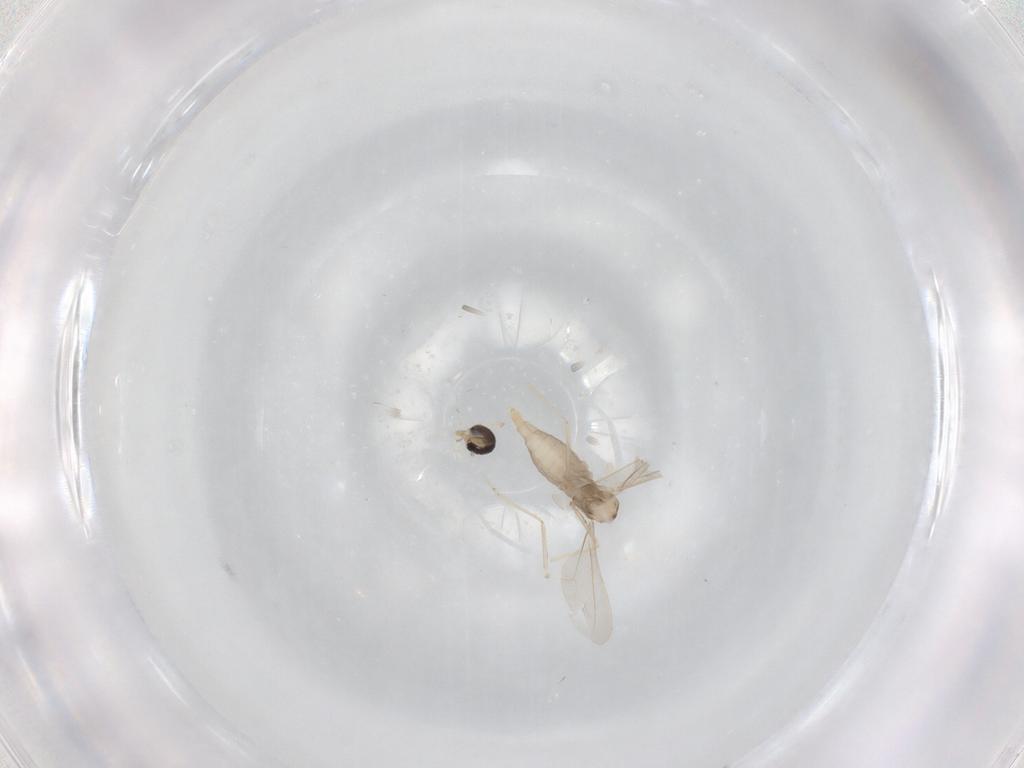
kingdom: Animalia
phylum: Arthropoda
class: Insecta
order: Diptera
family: Cecidomyiidae
